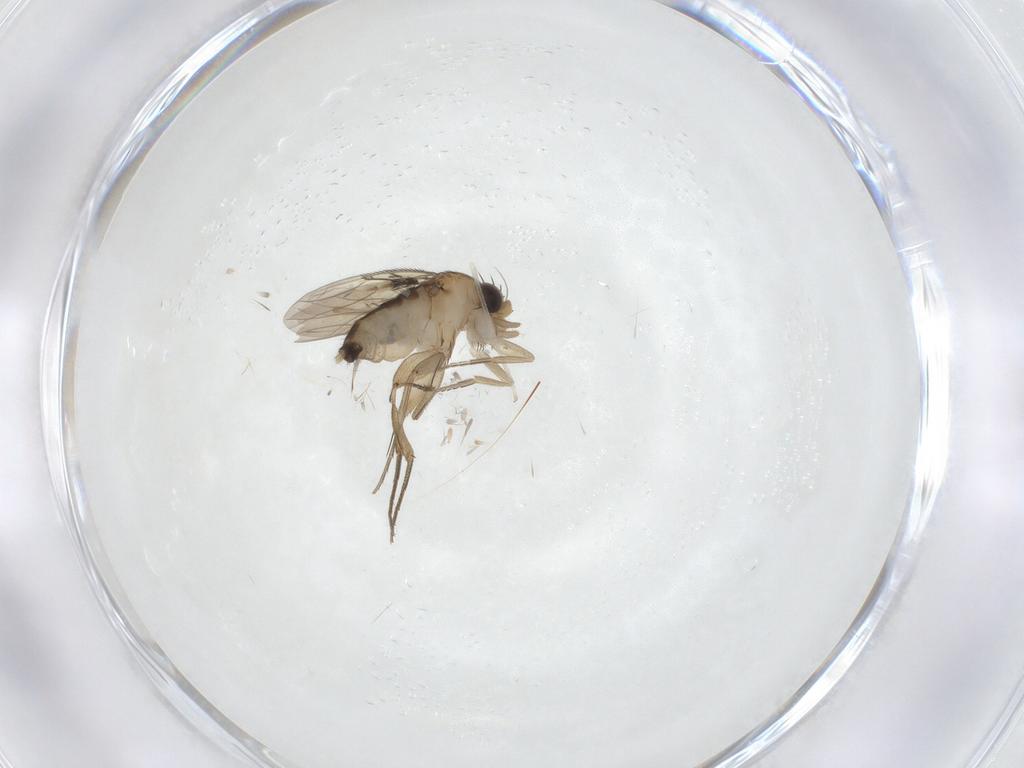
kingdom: Animalia
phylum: Arthropoda
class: Insecta
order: Diptera
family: Phoridae
